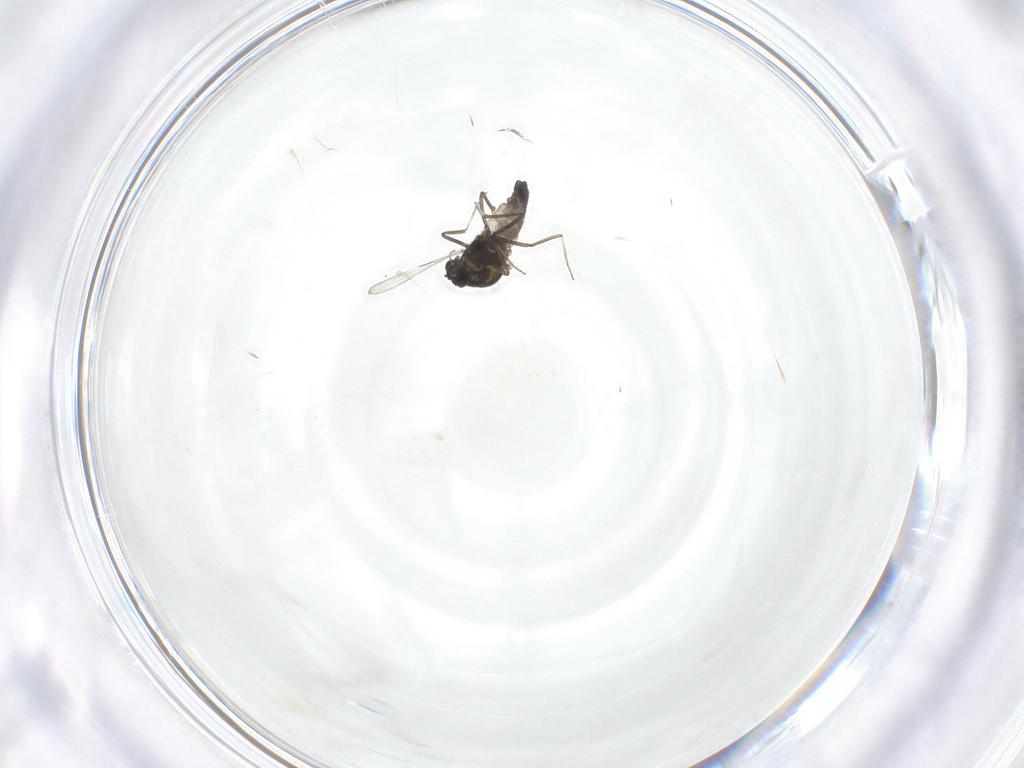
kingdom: Animalia
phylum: Arthropoda
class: Insecta
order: Diptera
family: Ceratopogonidae
